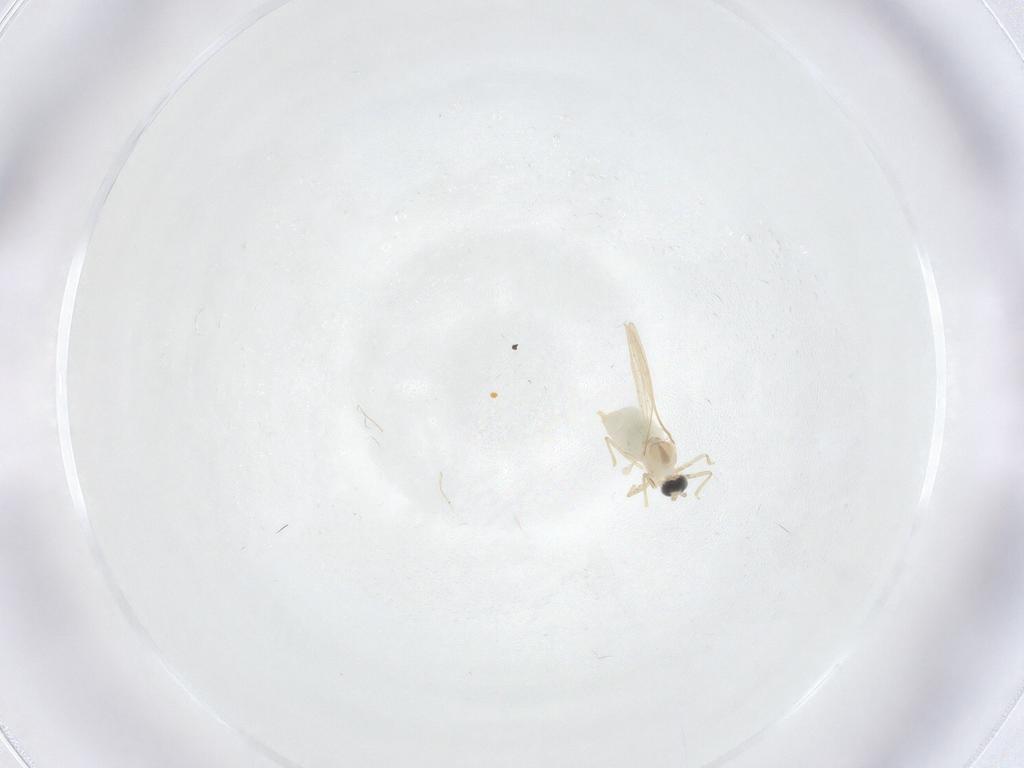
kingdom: Animalia
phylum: Arthropoda
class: Insecta
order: Diptera
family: Cecidomyiidae
